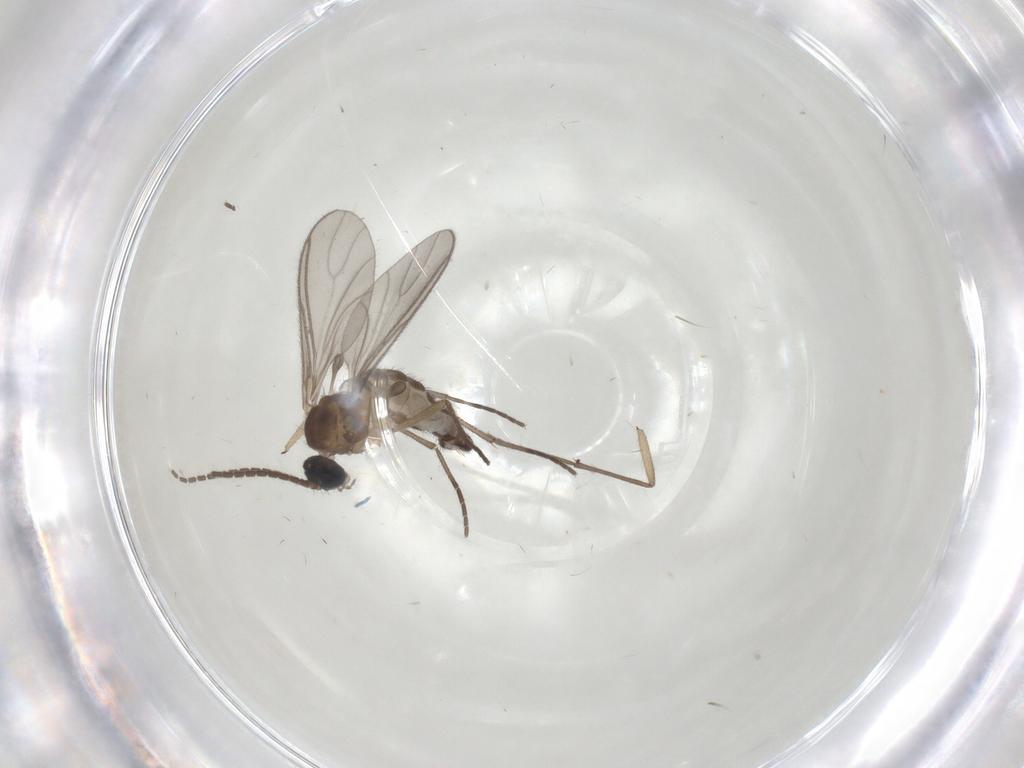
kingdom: Animalia
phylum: Arthropoda
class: Insecta
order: Diptera
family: Sciaridae
